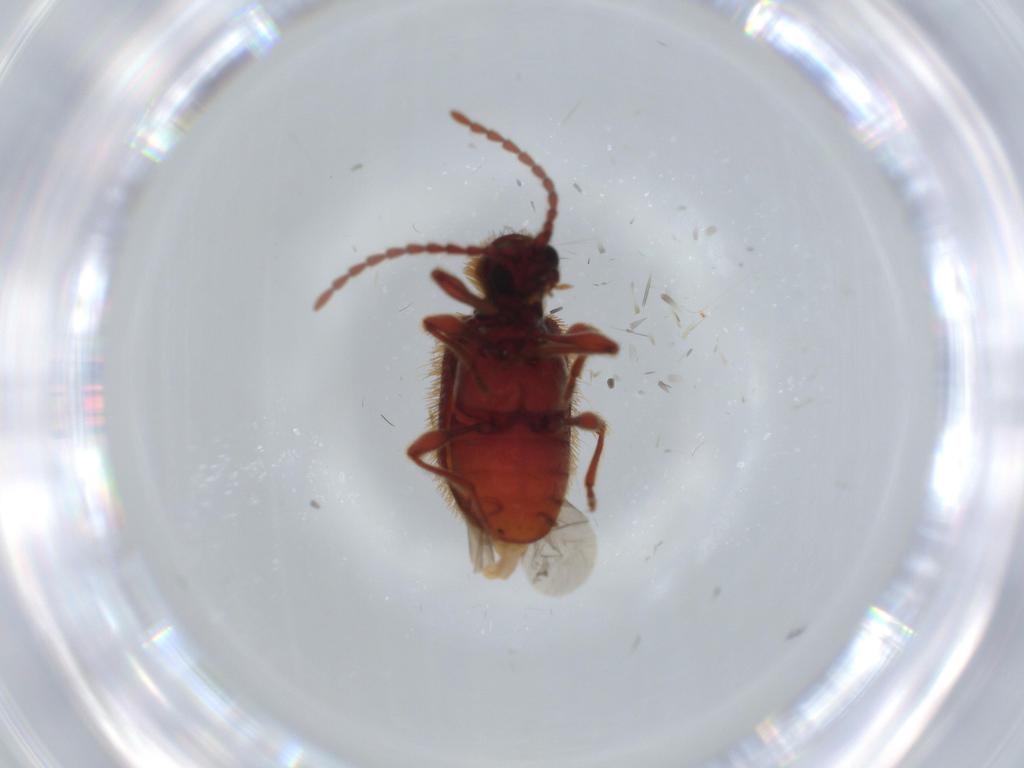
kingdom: Animalia
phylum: Arthropoda
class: Insecta
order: Coleoptera
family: Ptinidae
